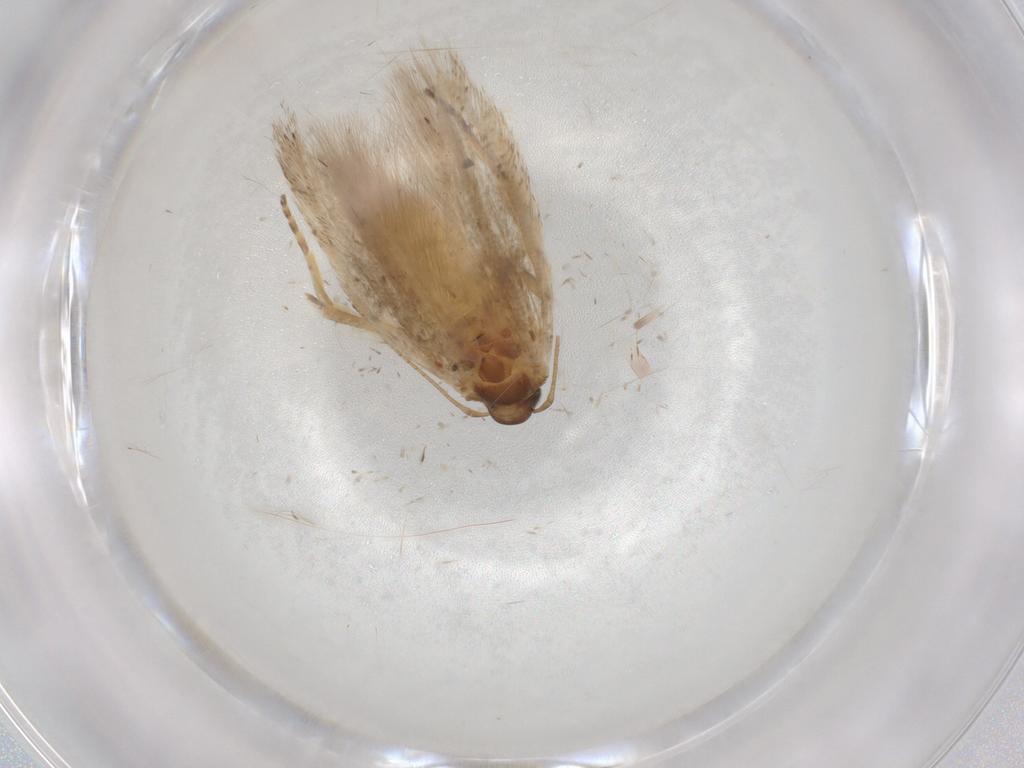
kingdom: Animalia
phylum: Arthropoda
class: Insecta
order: Lepidoptera
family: Gelechiidae
